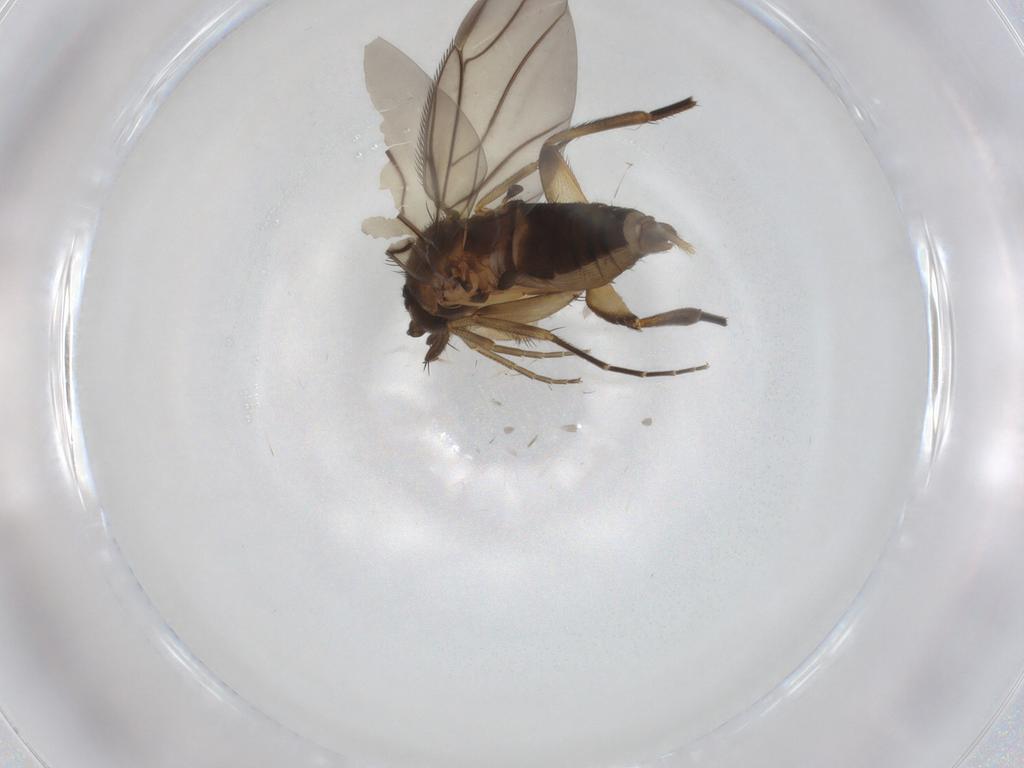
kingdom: Animalia
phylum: Arthropoda
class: Insecta
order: Diptera
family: Phoridae
